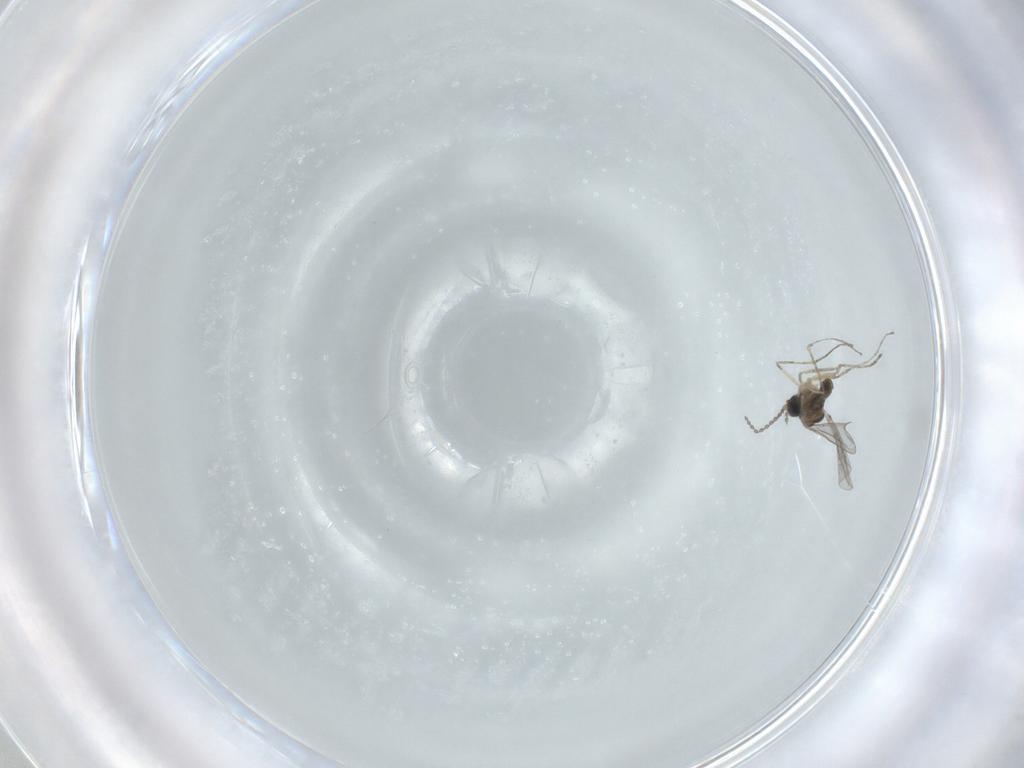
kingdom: Animalia
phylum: Arthropoda
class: Insecta
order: Diptera
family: Cecidomyiidae
